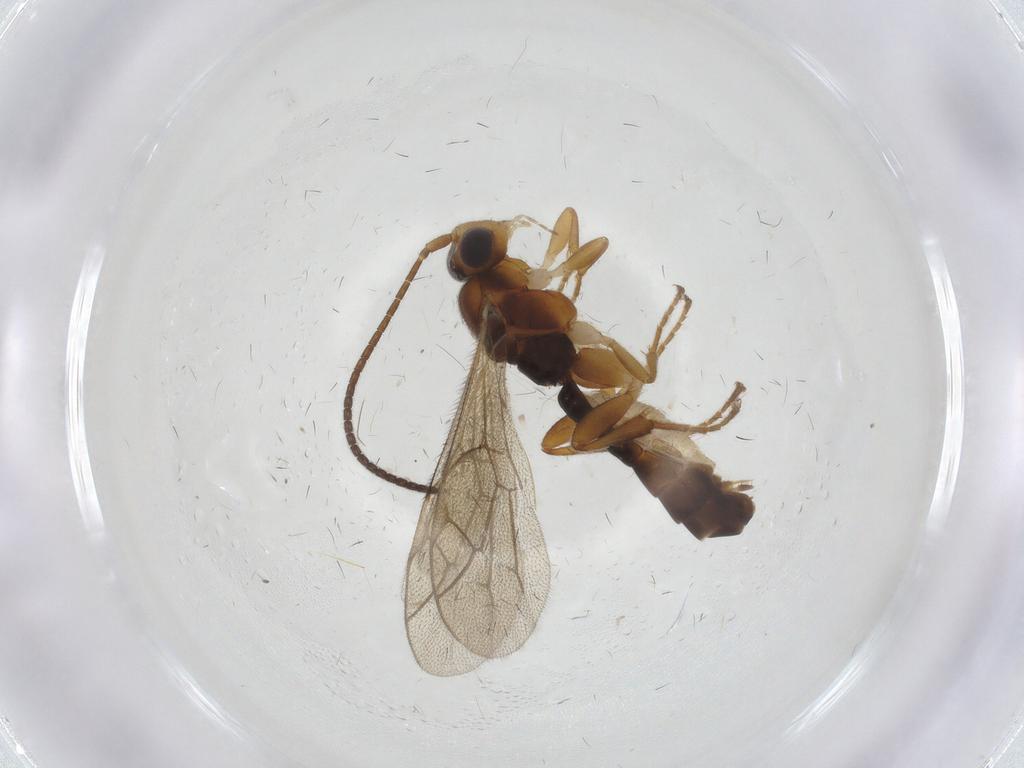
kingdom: Animalia
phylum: Arthropoda
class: Insecta
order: Hymenoptera
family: Ichneumonidae
